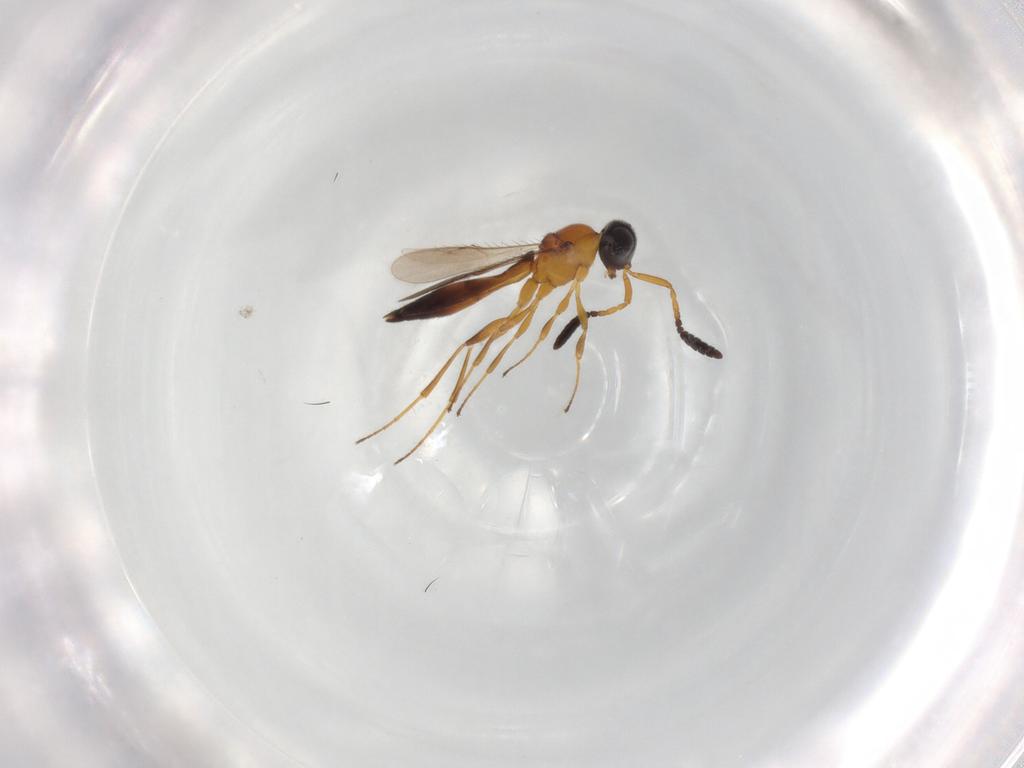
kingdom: Animalia
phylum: Arthropoda
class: Insecta
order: Hymenoptera
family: Scelionidae
